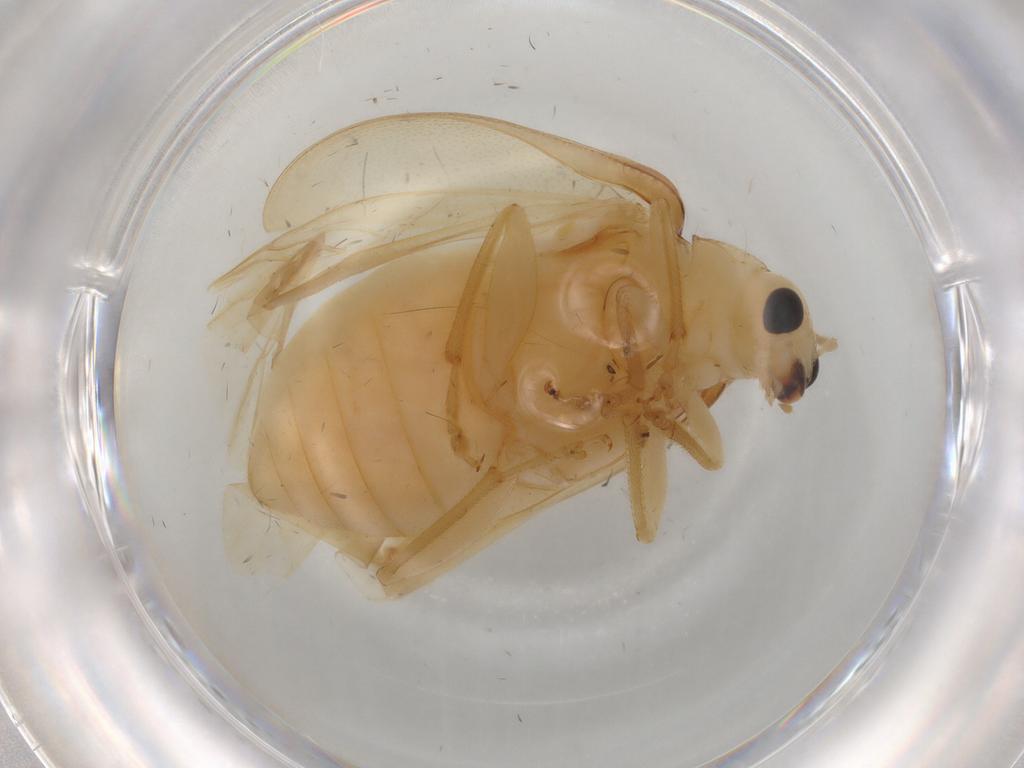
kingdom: Animalia
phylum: Arthropoda
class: Insecta
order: Coleoptera
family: Chrysomelidae
